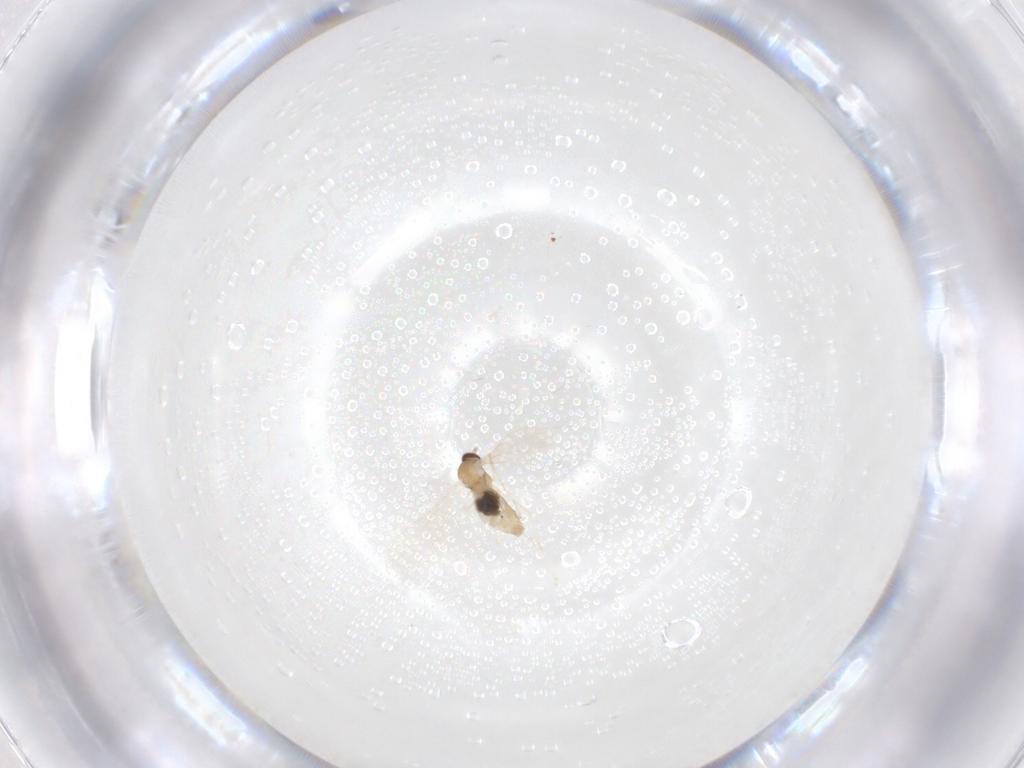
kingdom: Animalia
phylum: Arthropoda
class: Insecta
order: Diptera
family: Cecidomyiidae
